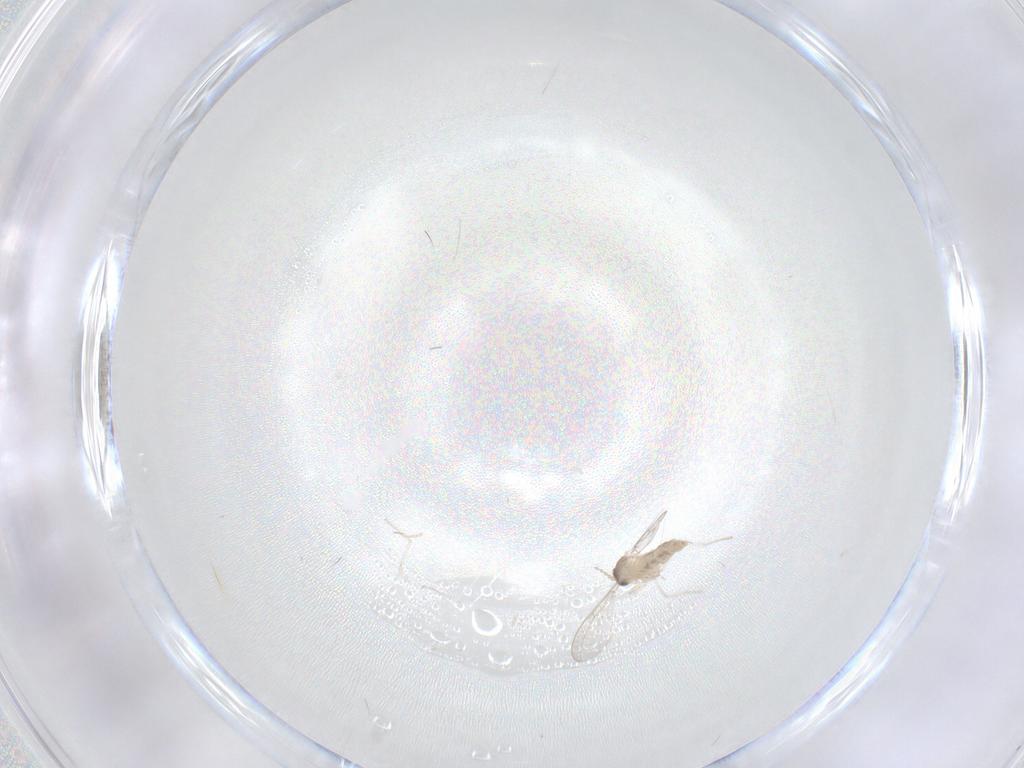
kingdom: Animalia
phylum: Arthropoda
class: Insecta
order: Diptera
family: Cecidomyiidae
